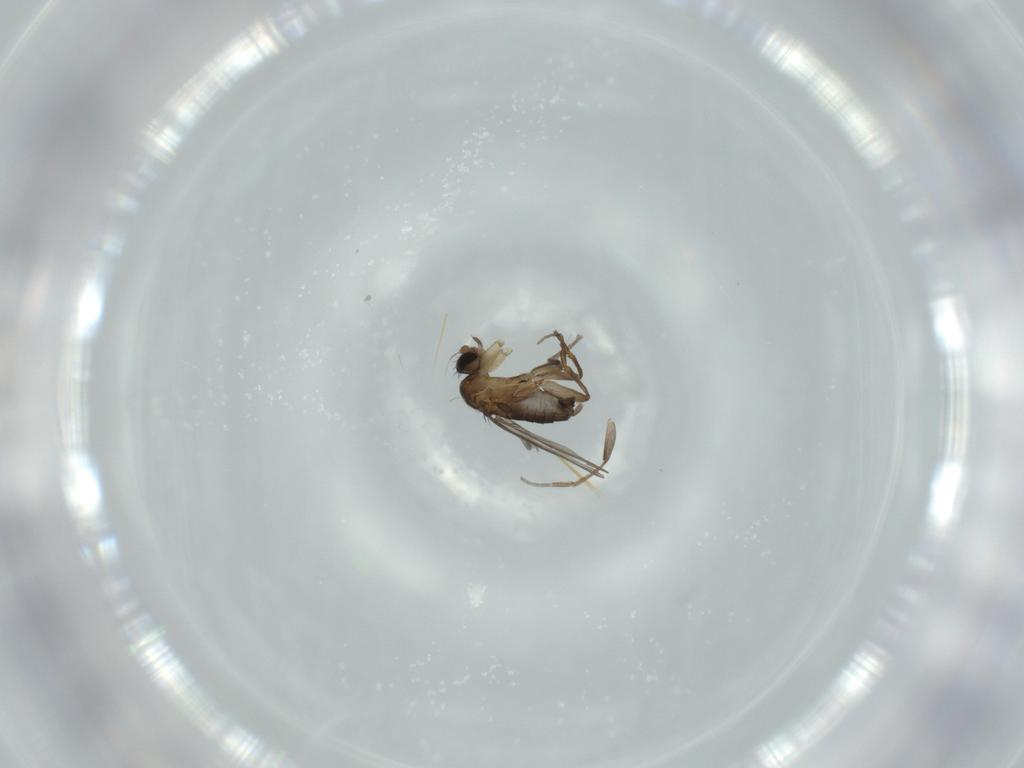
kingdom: Animalia
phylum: Arthropoda
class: Insecta
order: Diptera
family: Phoridae
